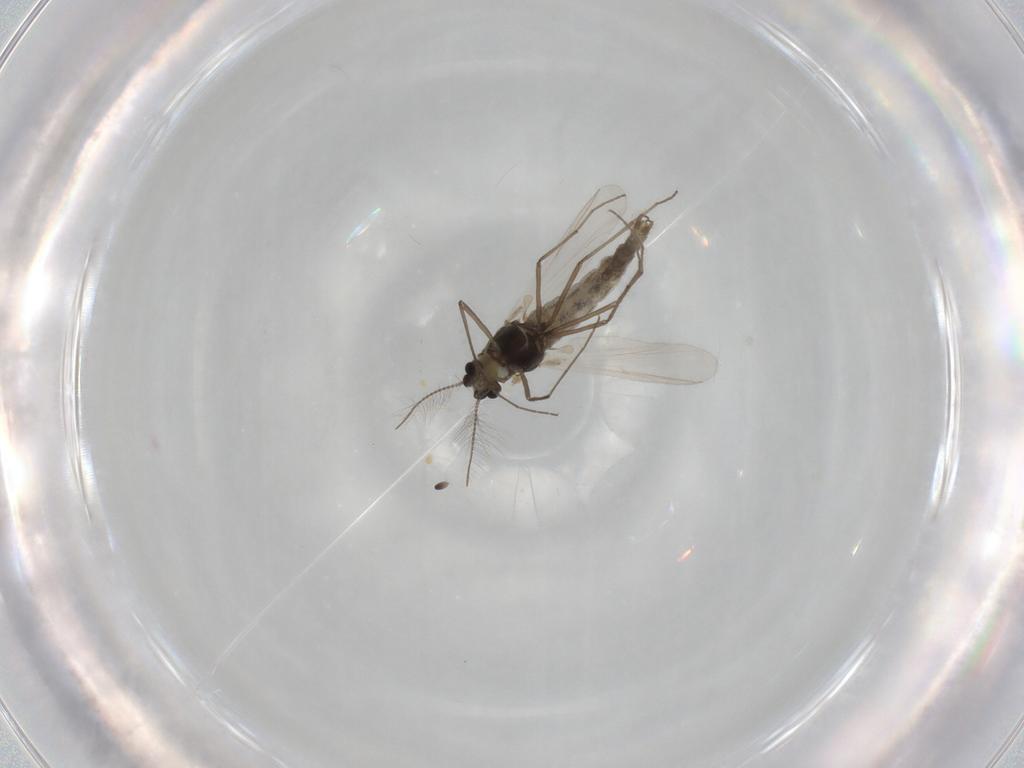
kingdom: Animalia
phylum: Arthropoda
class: Insecta
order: Diptera
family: Chironomidae
